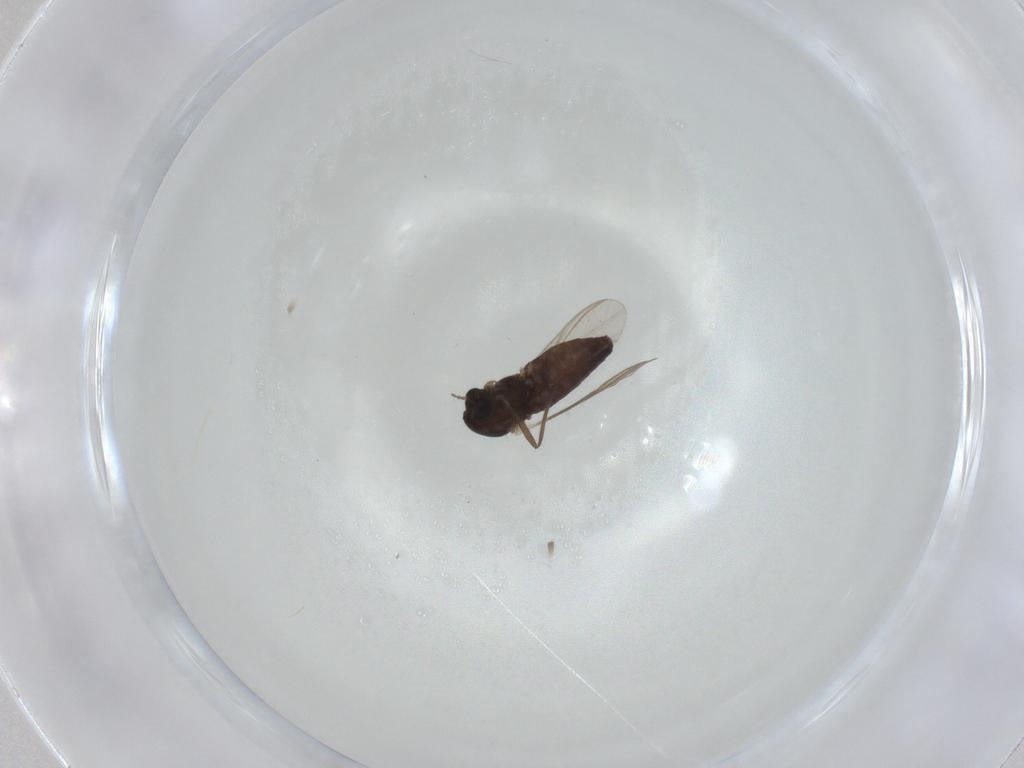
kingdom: Animalia
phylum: Arthropoda
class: Insecta
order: Diptera
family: Chironomidae
